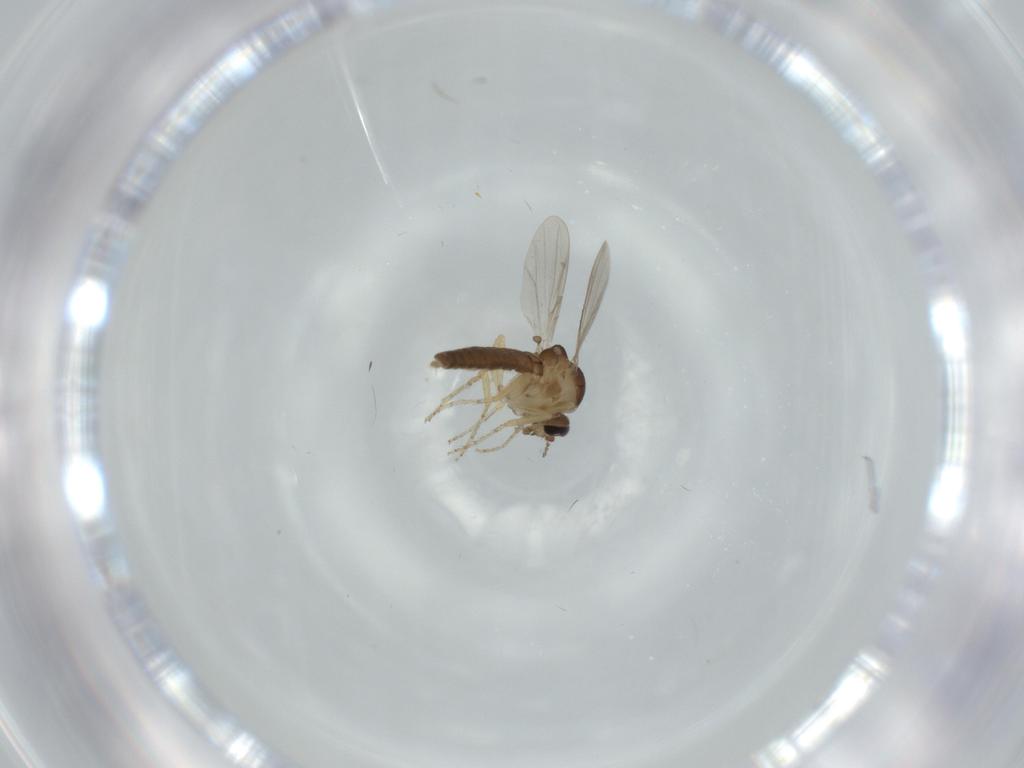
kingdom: Animalia
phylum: Arthropoda
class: Insecta
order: Diptera
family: Ceratopogonidae
